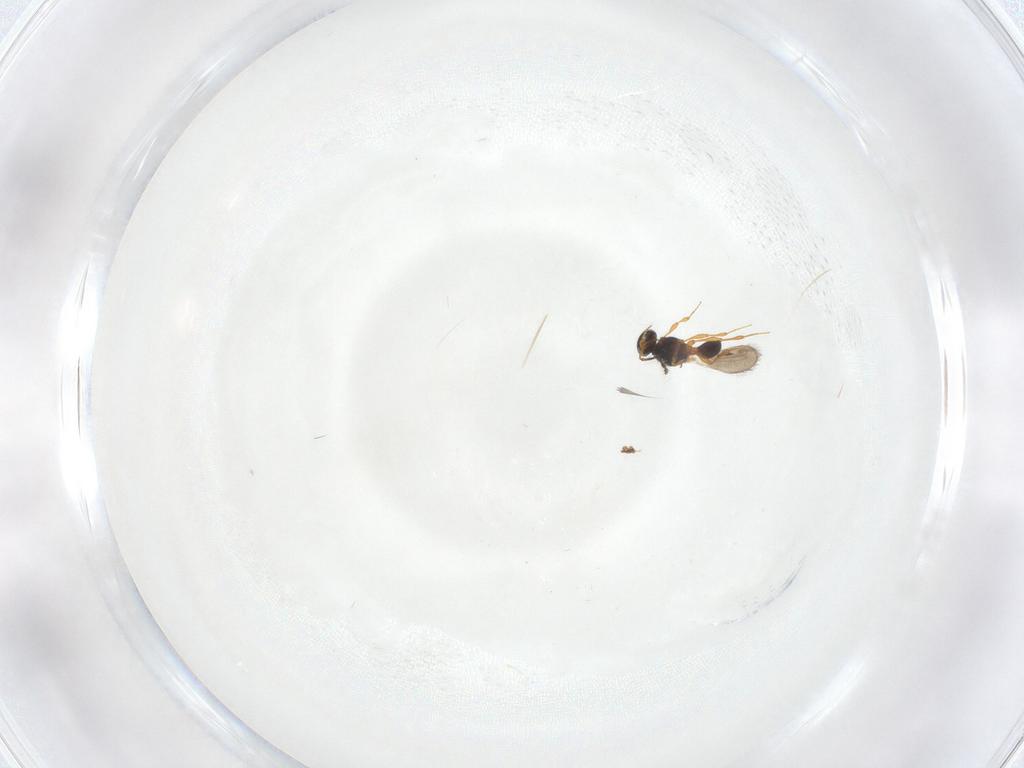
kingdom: Animalia
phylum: Arthropoda
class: Insecta
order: Hymenoptera
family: Platygastridae
